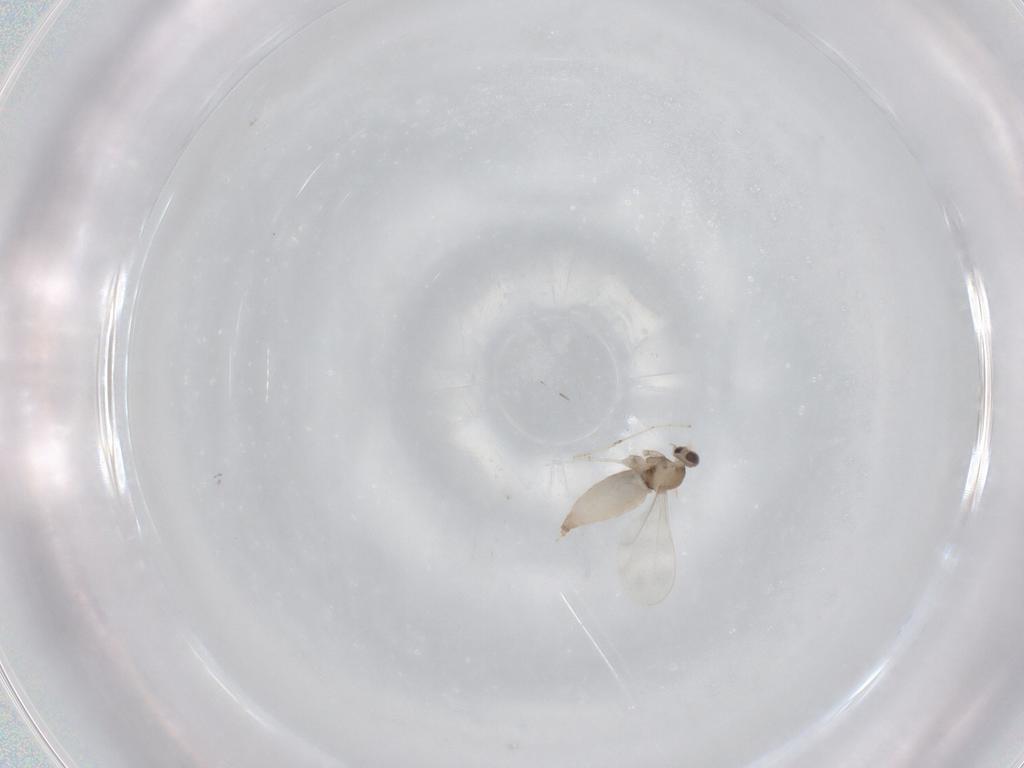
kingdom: Animalia
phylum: Arthropoda
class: Insecta
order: Diptera
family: Cecidomyiidae
